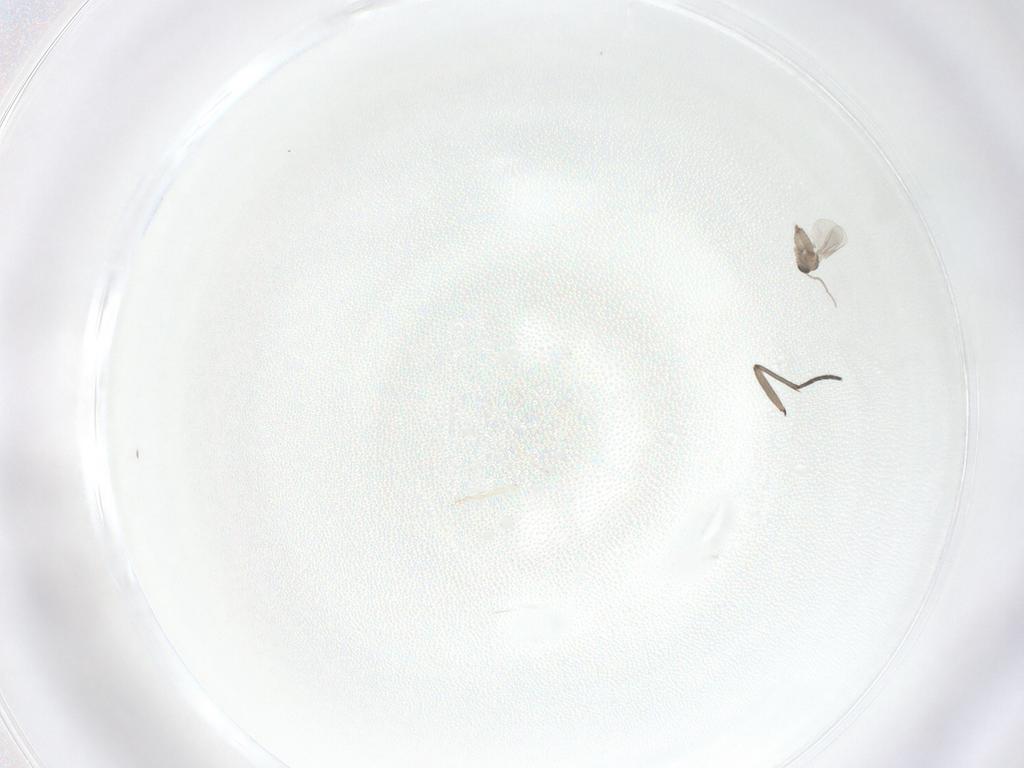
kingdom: Animalia
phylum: Arthropoda
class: Insecta
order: Diptera
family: Cecidomyiidae
